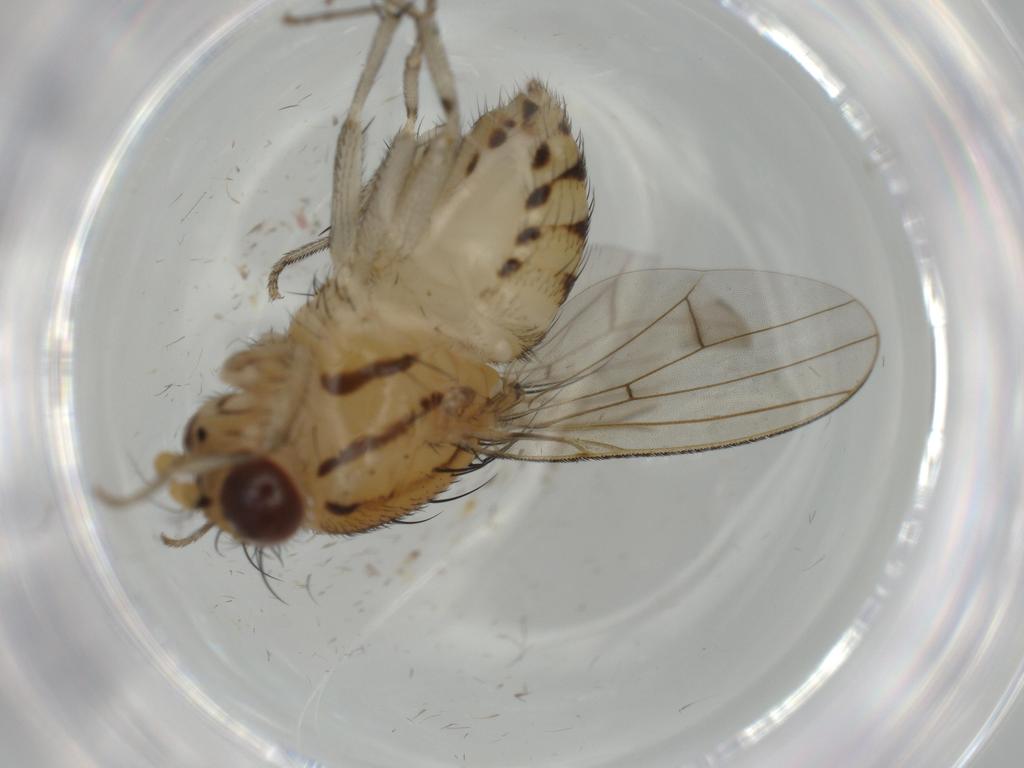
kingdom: Animalia
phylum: Arthropoda
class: Insecta
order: Diptera
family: Lauxaniidae
